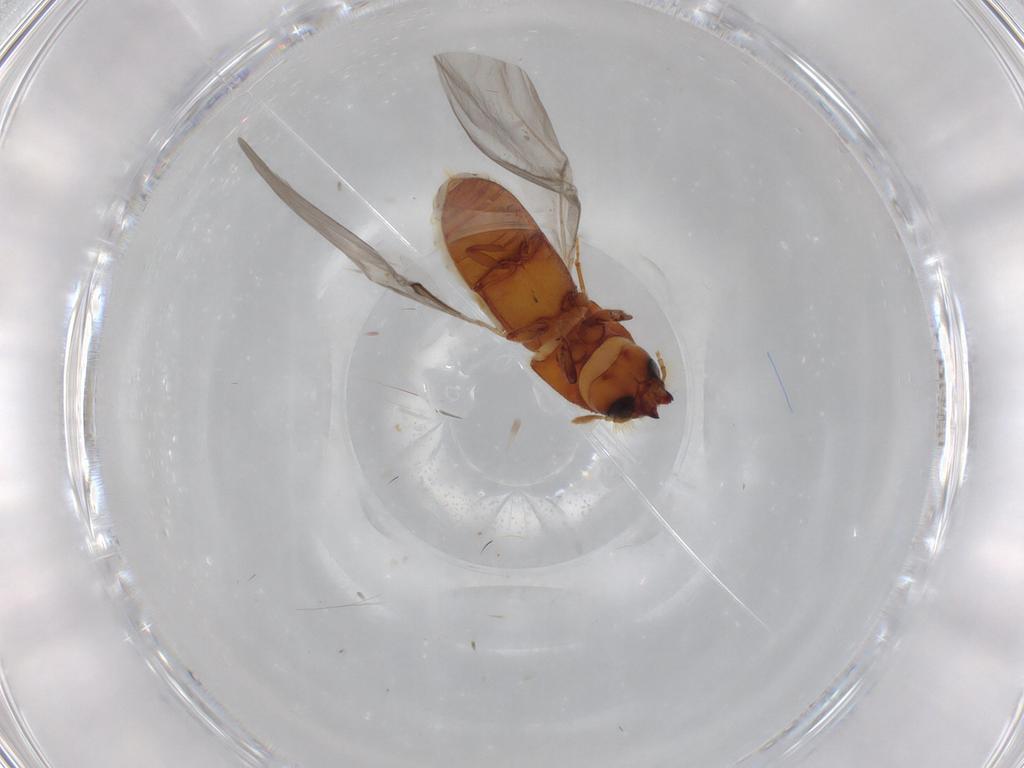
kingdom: Animalia
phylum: Arthropoda
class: Insecta
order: Coleoptera
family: Curculionidae
